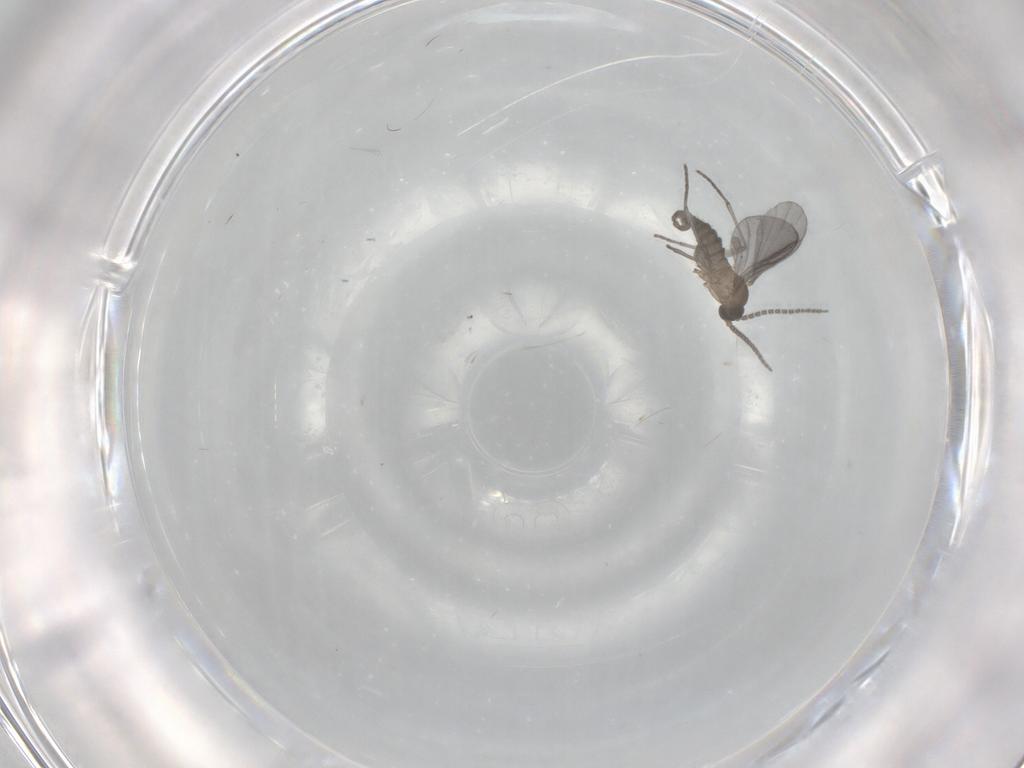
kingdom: Animalia
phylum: Arthropoda
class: Insecta
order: Diptera
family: Sciaridae
